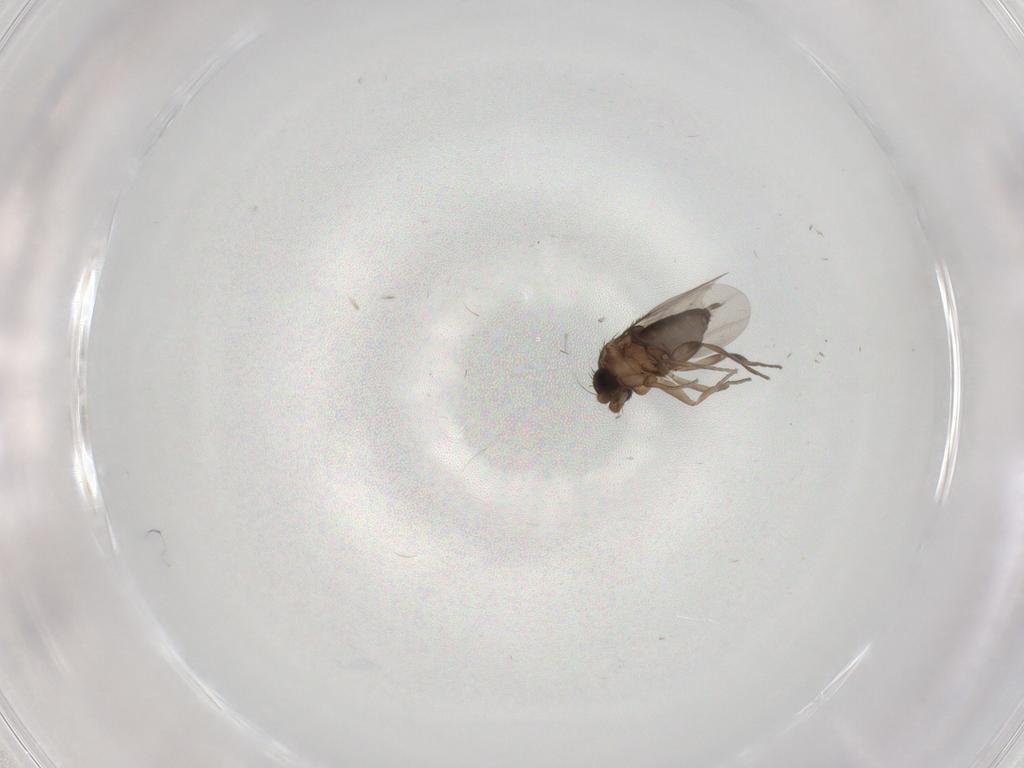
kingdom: Animalia
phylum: Arthropoda
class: Insecta
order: Diptera
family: Phoridae
